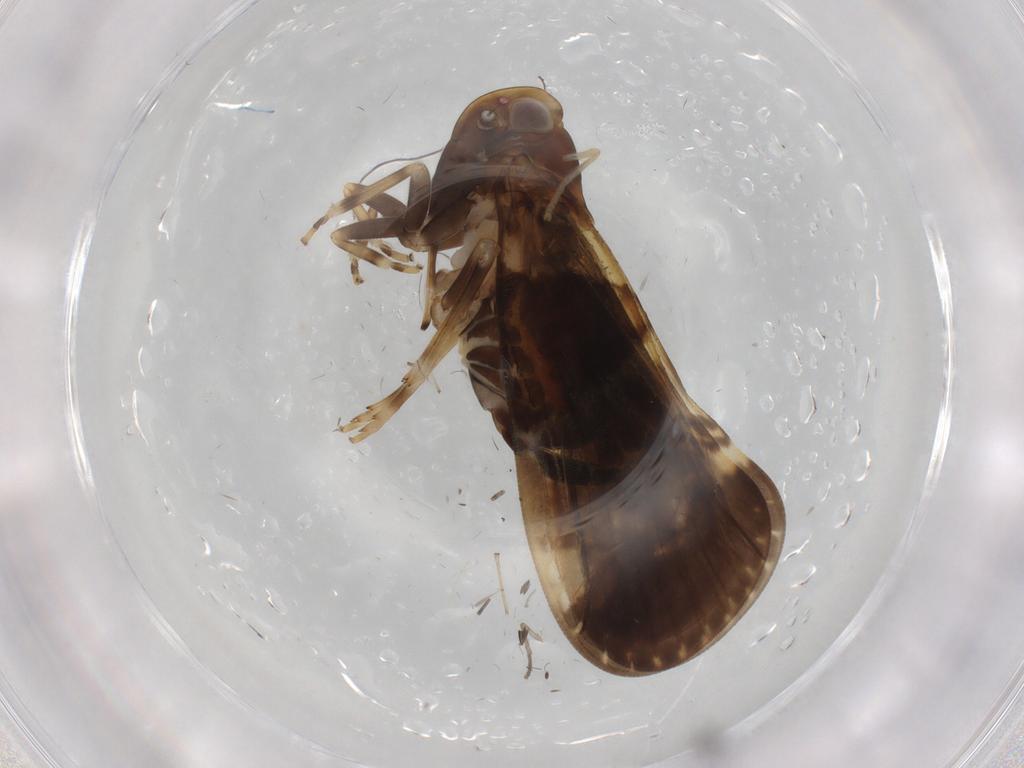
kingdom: Animalia
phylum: Arthropoda
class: Insecta
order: Hemiptera
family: Cixiidae
